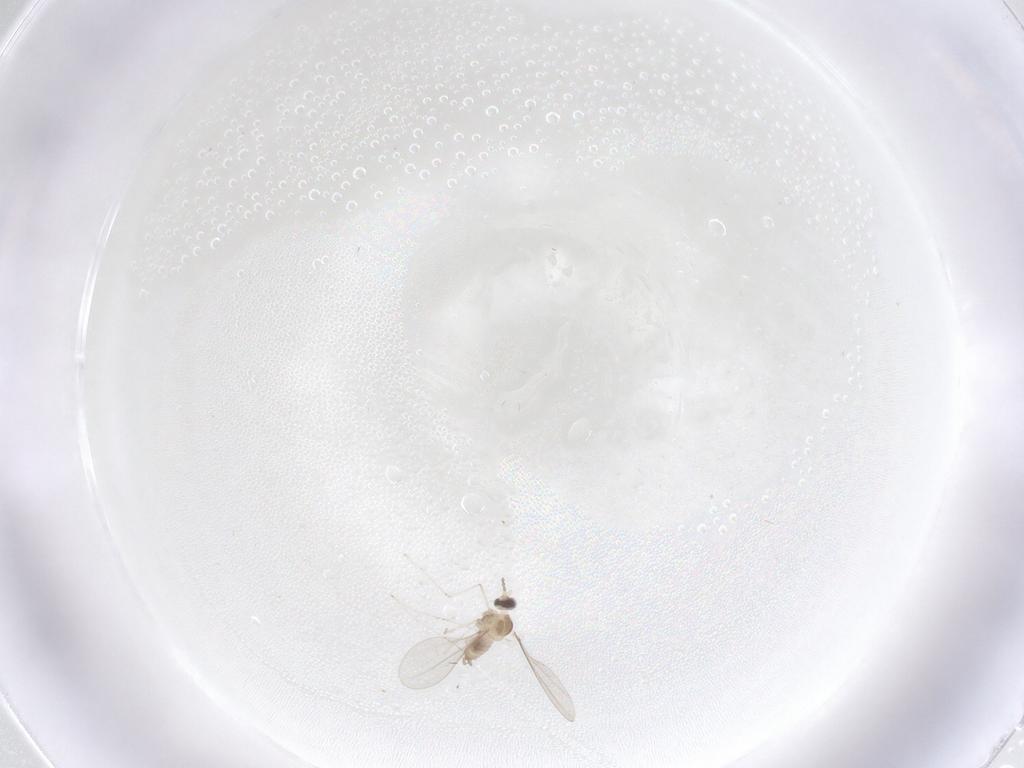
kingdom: Animalia
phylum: Arthropoda
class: Insecta
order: Diptera
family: Cecidomyiidae
